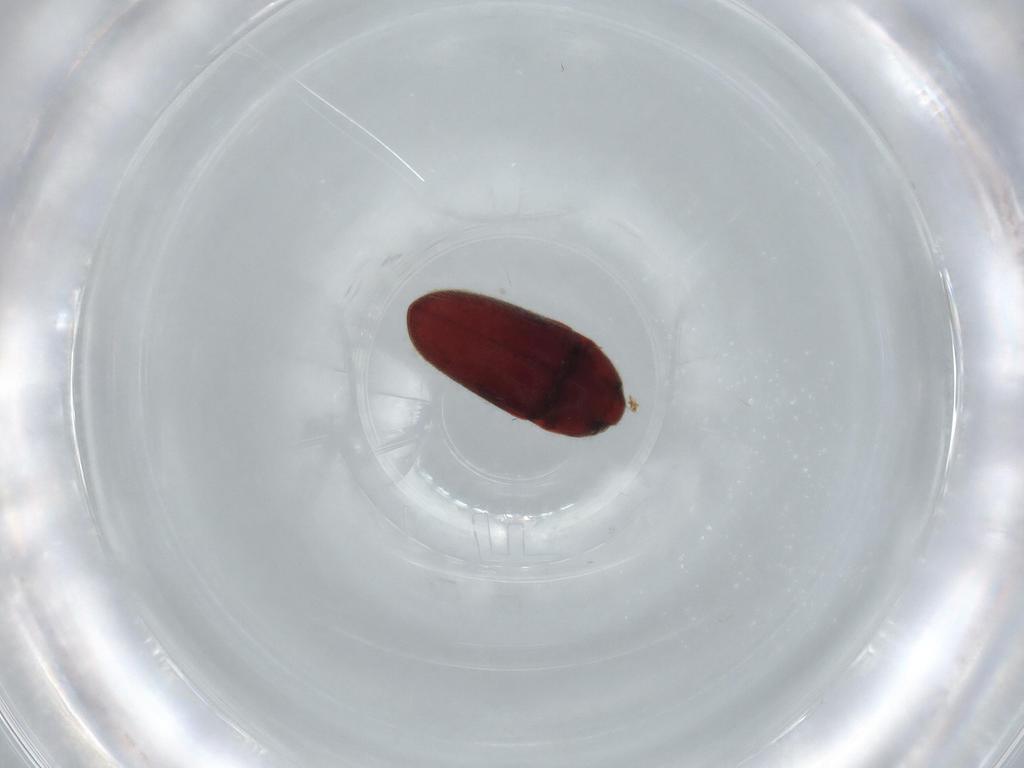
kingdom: Animalia
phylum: Arthropoda
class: Insecta
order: Coleoptera
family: Throscidae
